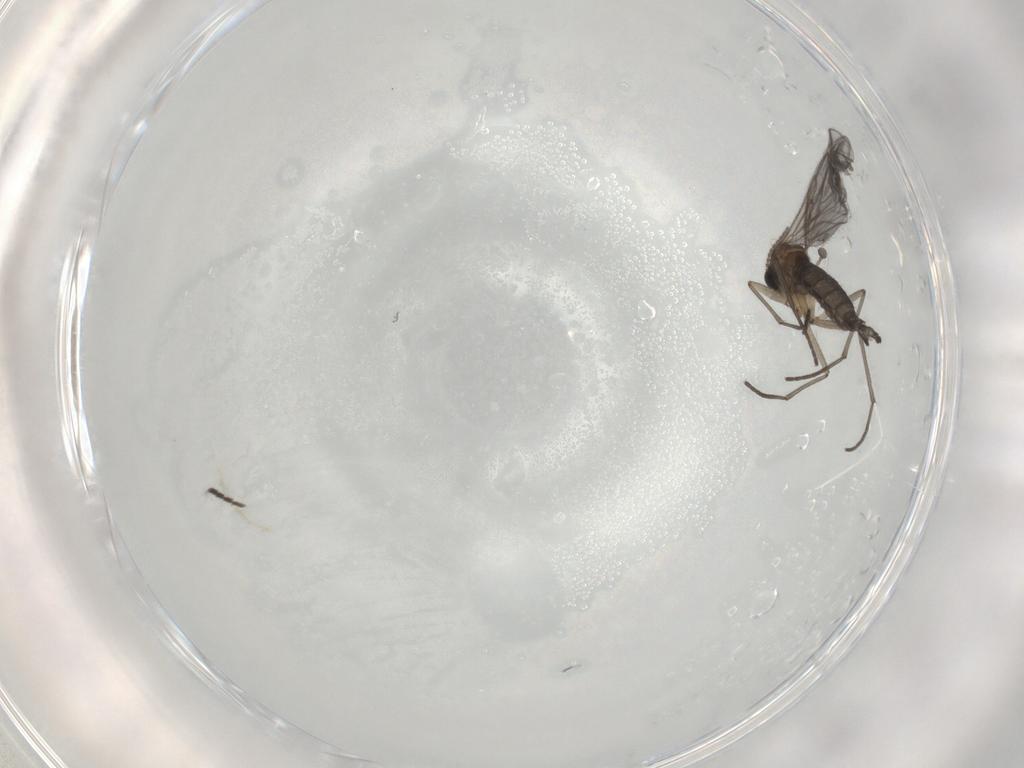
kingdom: Animalia
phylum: Arthropoda
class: Insecta
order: Diptera
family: Sciaridae
